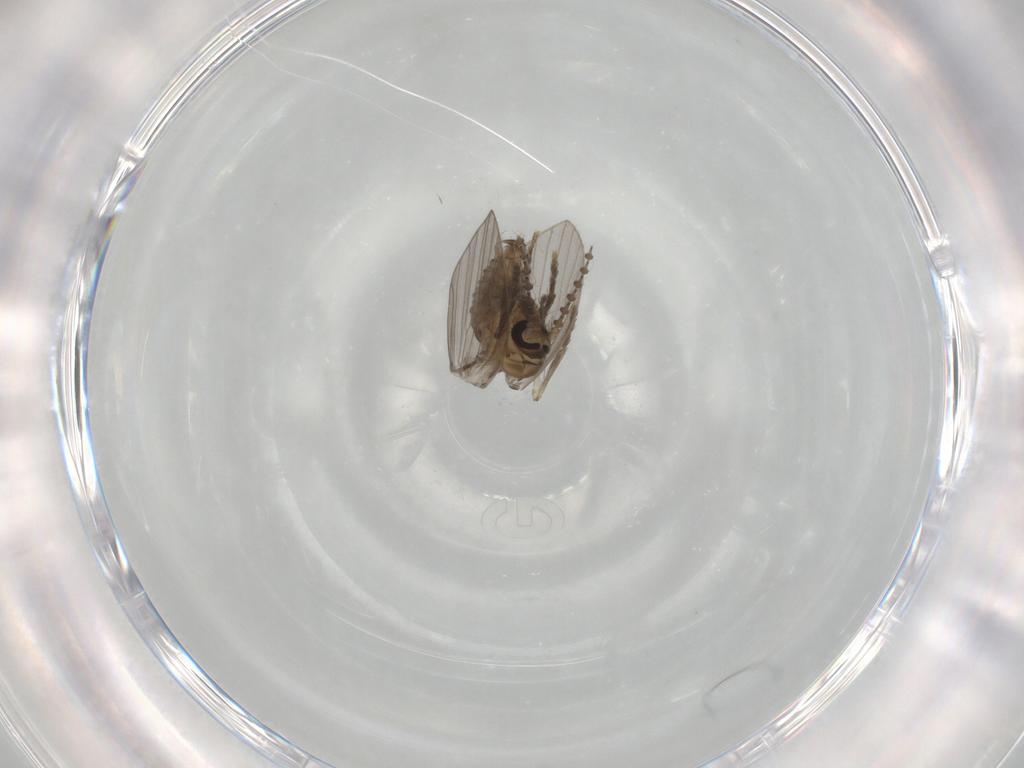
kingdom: Animalia
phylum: Arthropoda
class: Insecta
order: Diptera
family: Psychodidae
